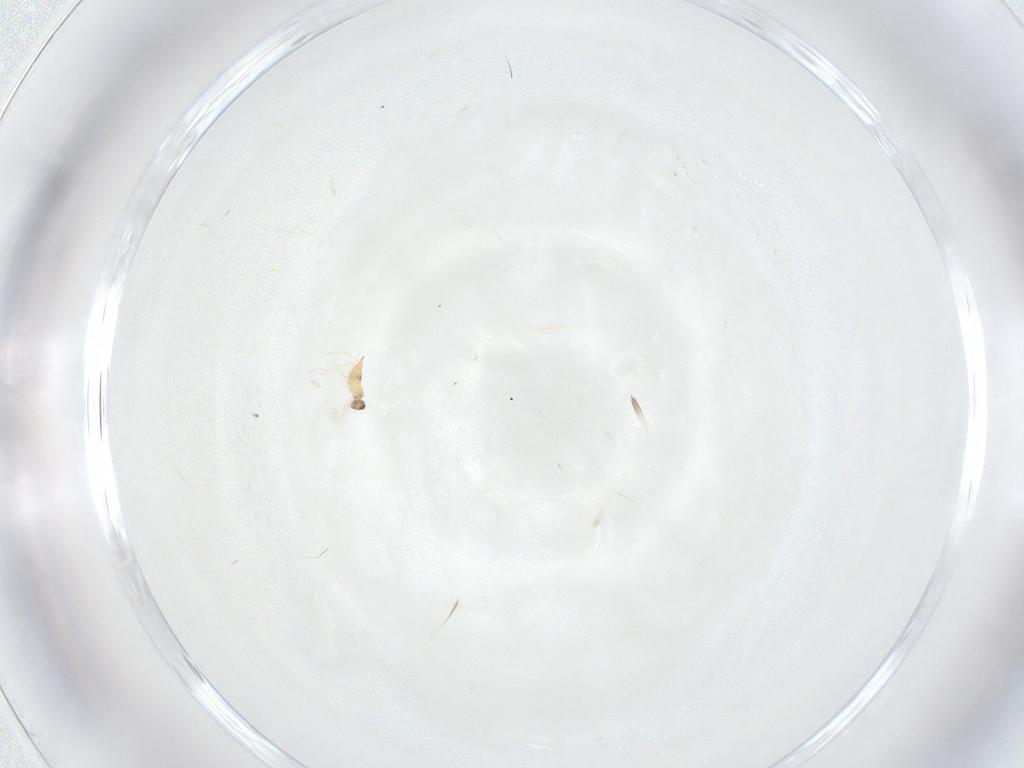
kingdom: Animalia
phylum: Arthropoda
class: Insecta
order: Hymenoptera
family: Mymaridae
